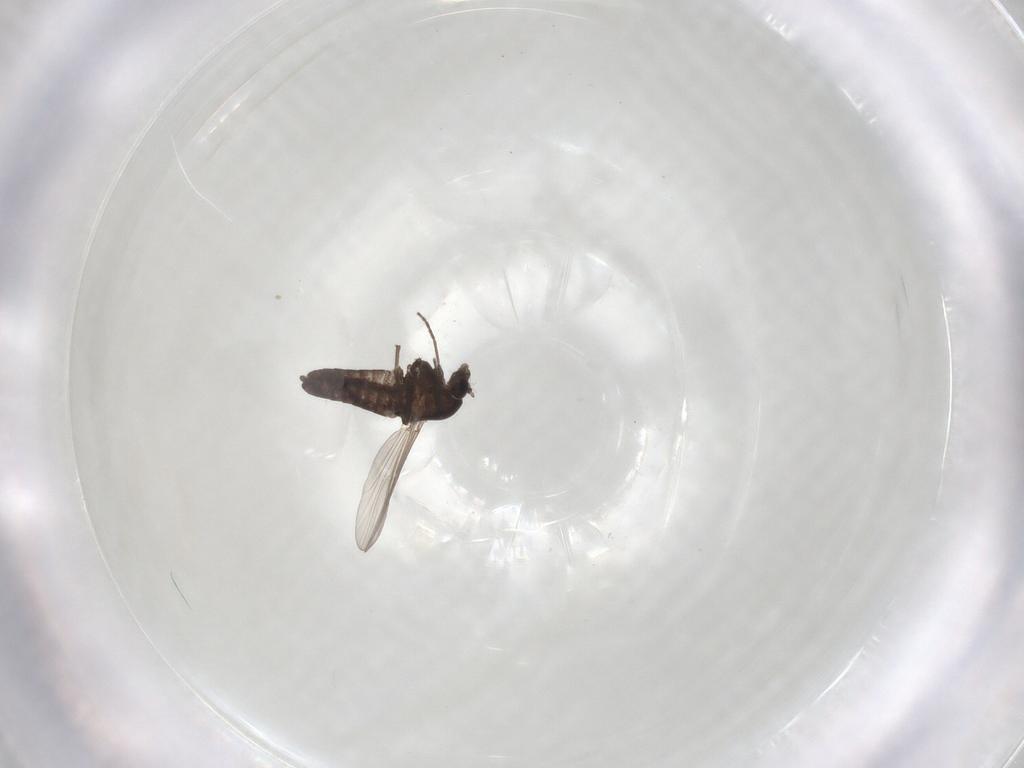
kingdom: Animalia
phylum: Arthropoda
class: Insecta
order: Diptera
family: Chironomidae
